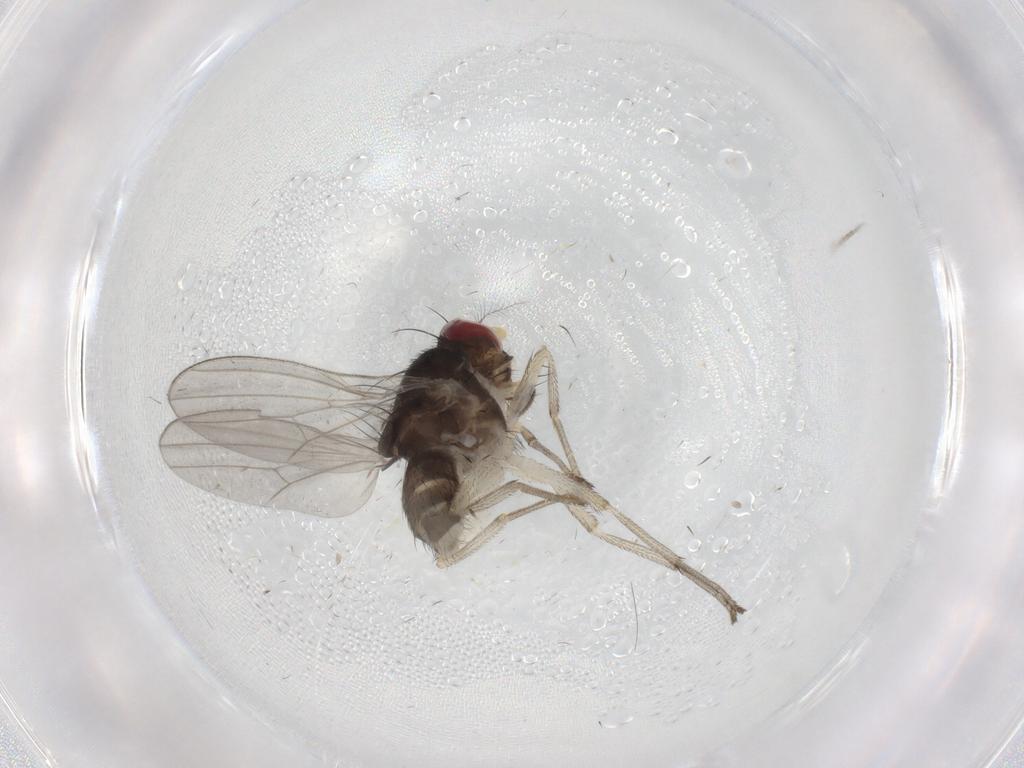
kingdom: Animalia
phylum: Arthropoda
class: Insecta
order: Diptera
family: Lauxaniidae
